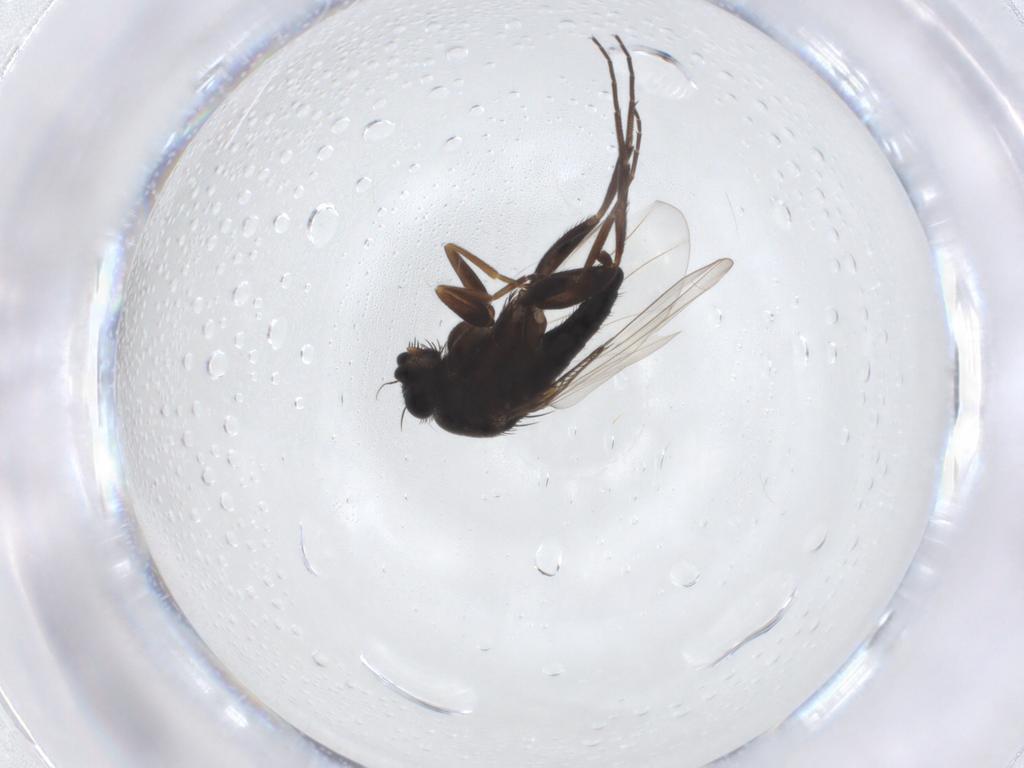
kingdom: Animalia
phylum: Arthropoda
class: Insecta
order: Diptera
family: Phoridae
